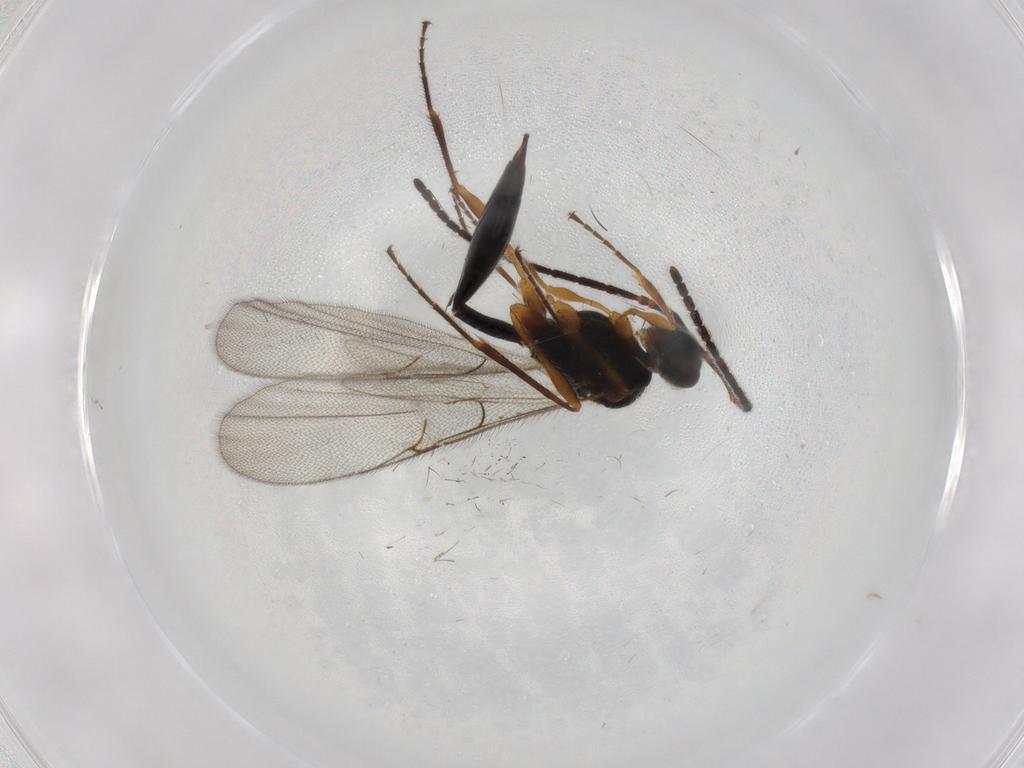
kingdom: Animalia
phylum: Arthropoda
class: Insecta
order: Hymenoptera
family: Diapriidae
